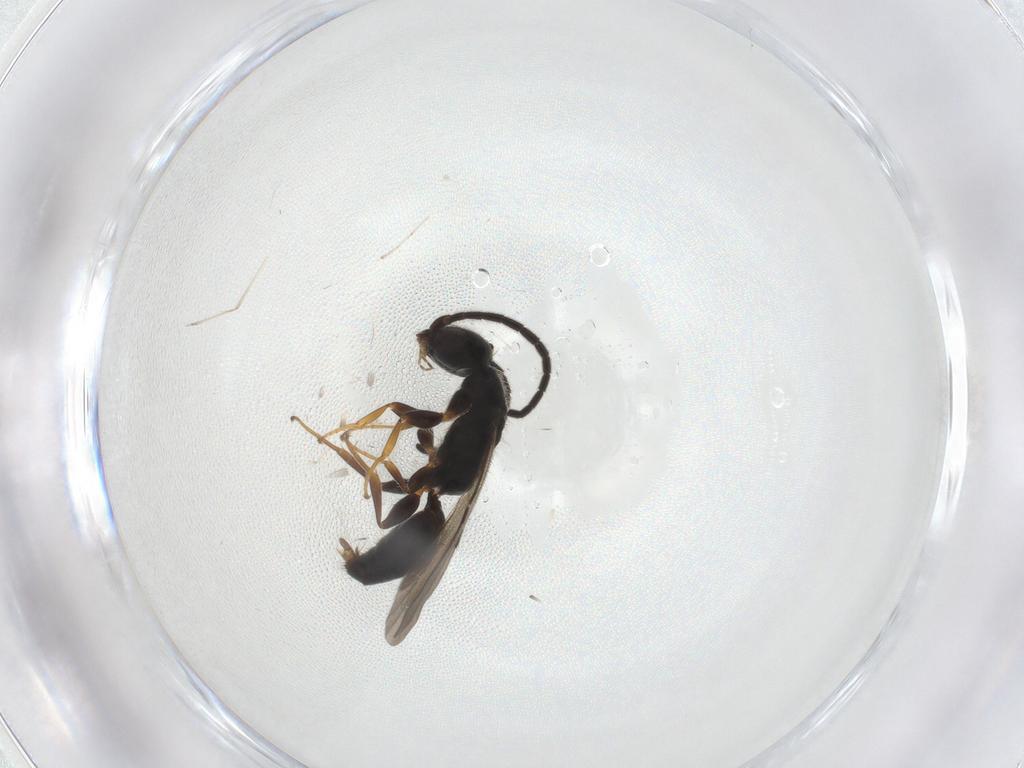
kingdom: Animalia
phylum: Arthropoda
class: Insecta
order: Hymenoptera
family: Bethylidae
